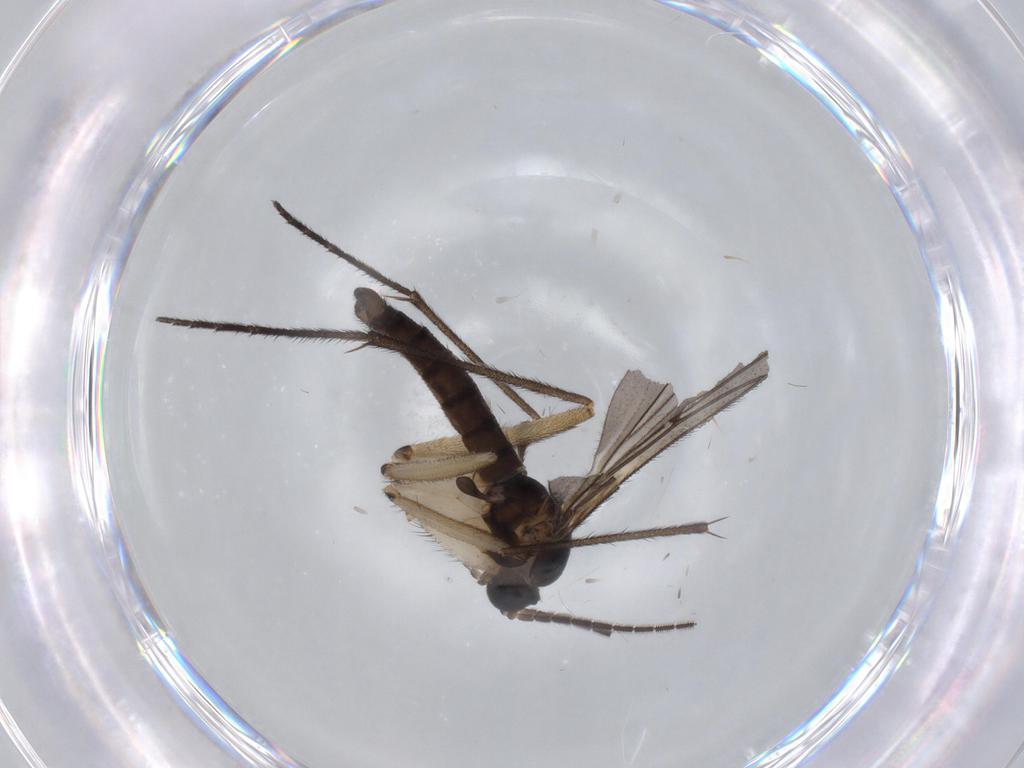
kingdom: Animalia
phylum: Arthropoda
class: Insecta
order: Diptera
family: Sciaridae
